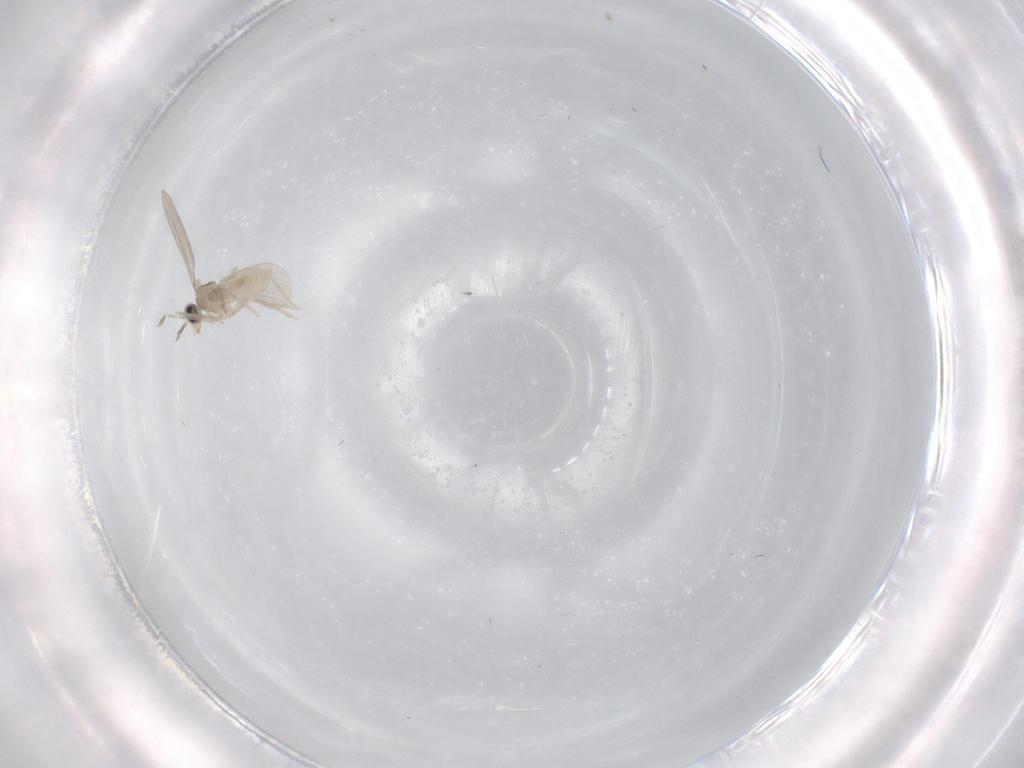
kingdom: Animalia
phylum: Arthropoda
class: Insecta
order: Diptera
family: Cecidomyiidae
